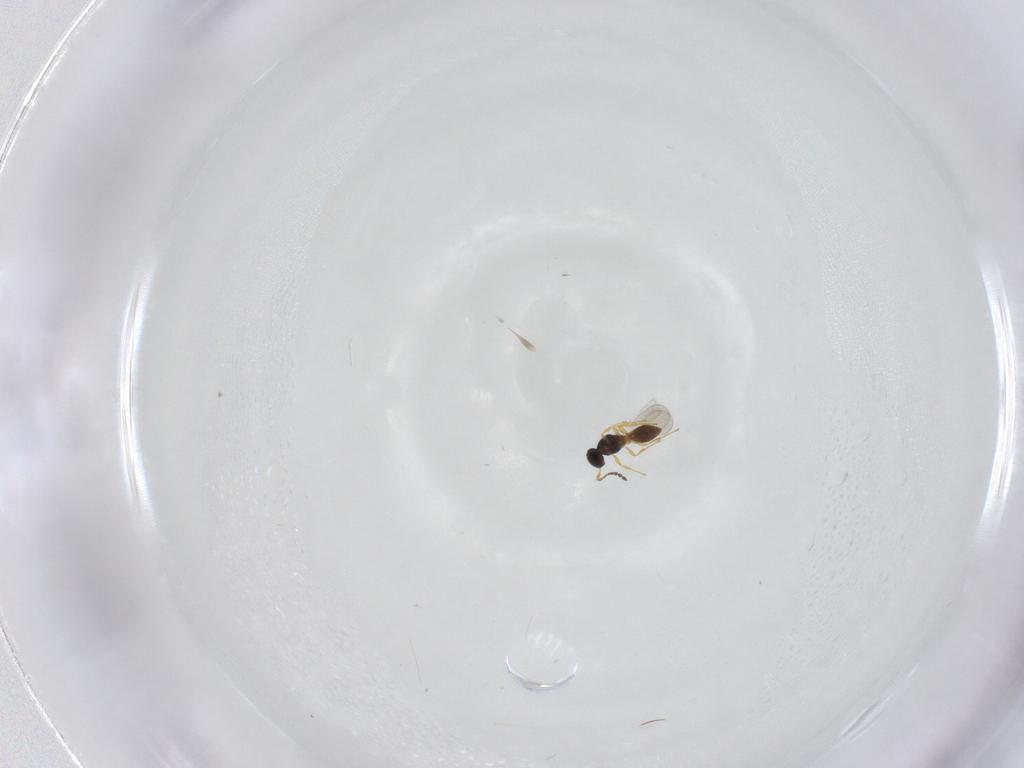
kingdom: Animalia
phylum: Arthropoda
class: Insecta
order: Hymenoptera
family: Platygastridae
